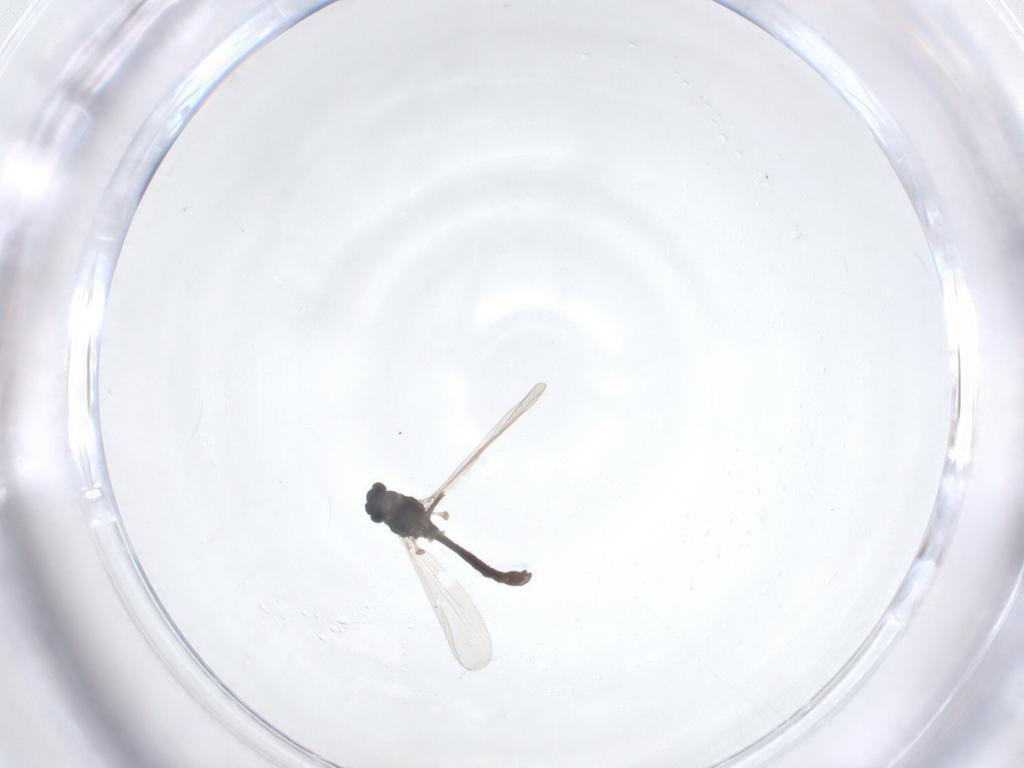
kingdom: Animalia
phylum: Arthropoda
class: Insecta
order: Diptera
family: Chironomidae
